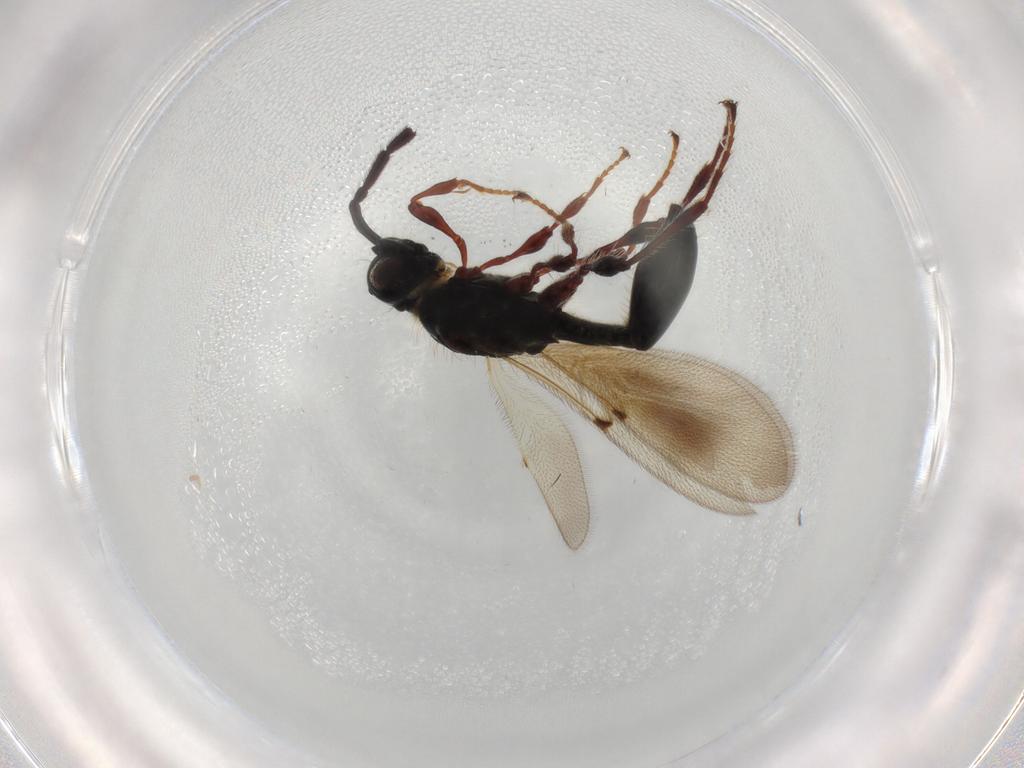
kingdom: Animalia
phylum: Arthropoda
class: Insecta
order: Hymenoptera
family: Diapriidae
